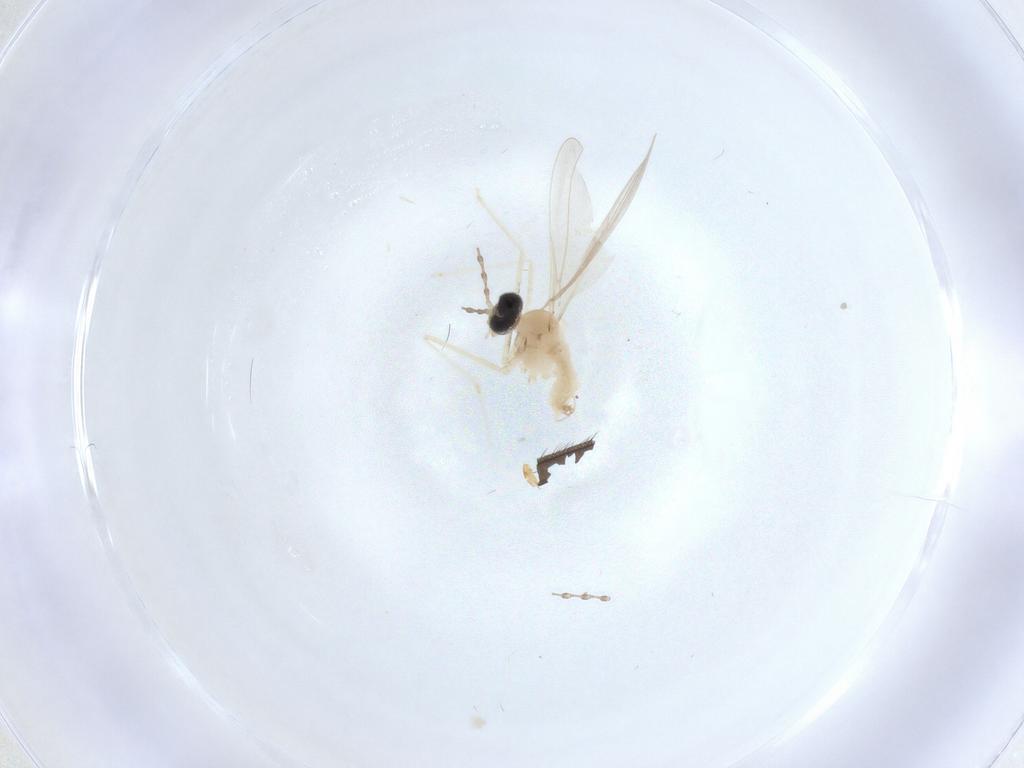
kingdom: Animalia
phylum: Arthropoda
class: Insecta
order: Diptera
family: Cecidomyiidae
